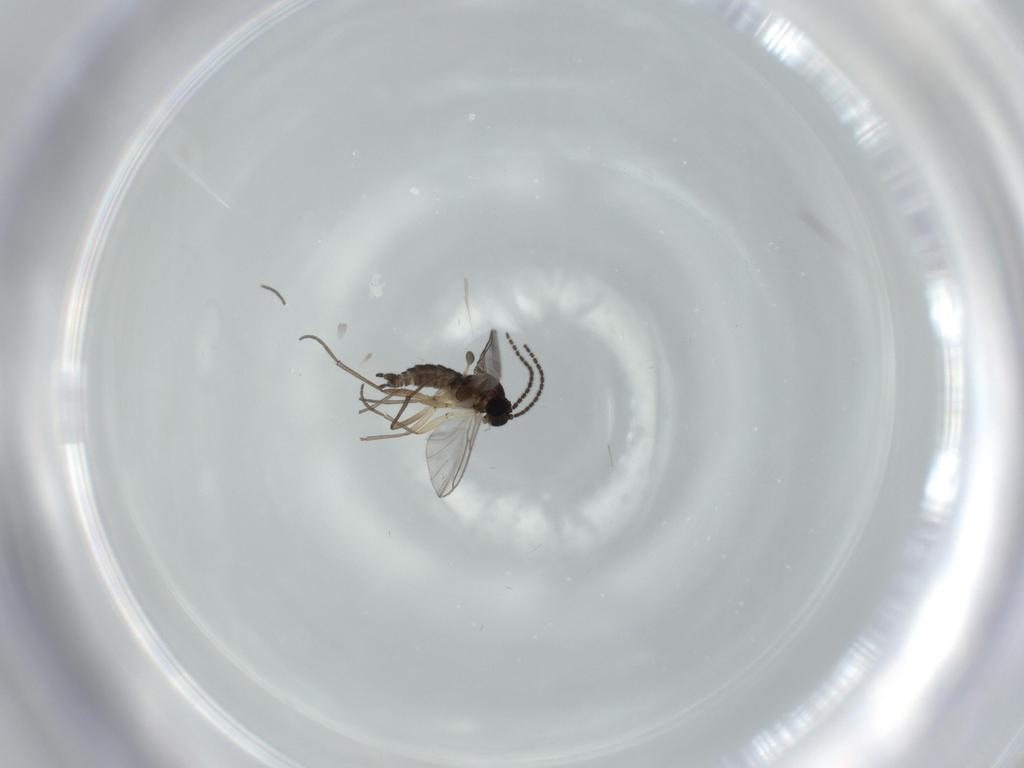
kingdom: Animalia
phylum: Arthropoda
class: Insecta
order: Diptera
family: Sciaridae
